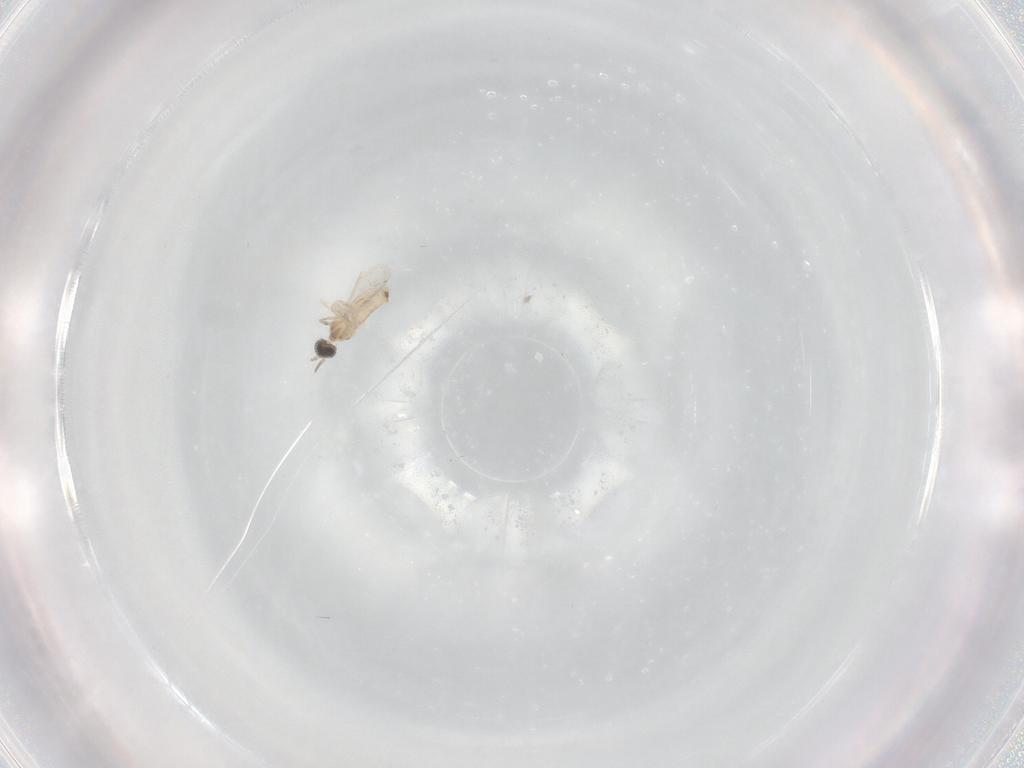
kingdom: Animalia
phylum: Arthropoda
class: Insecta
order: Diptera
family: Cecidomyiidae
